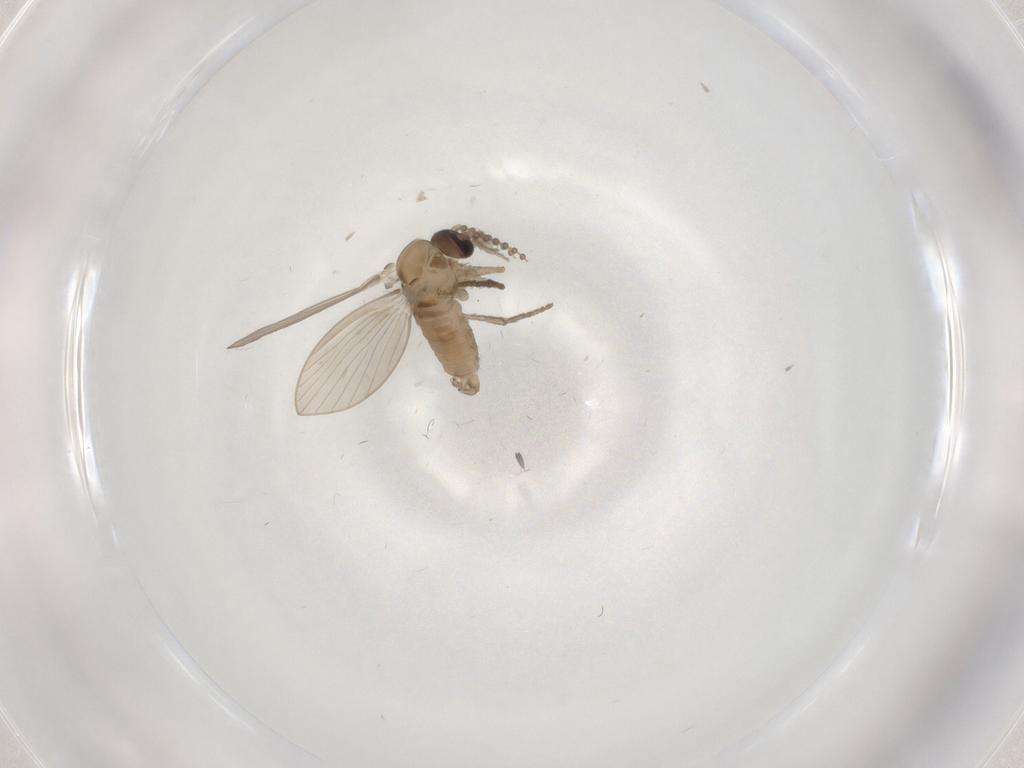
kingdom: Animalia
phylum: Arthropoda
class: Insecta
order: Diptera
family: Psychodidae
